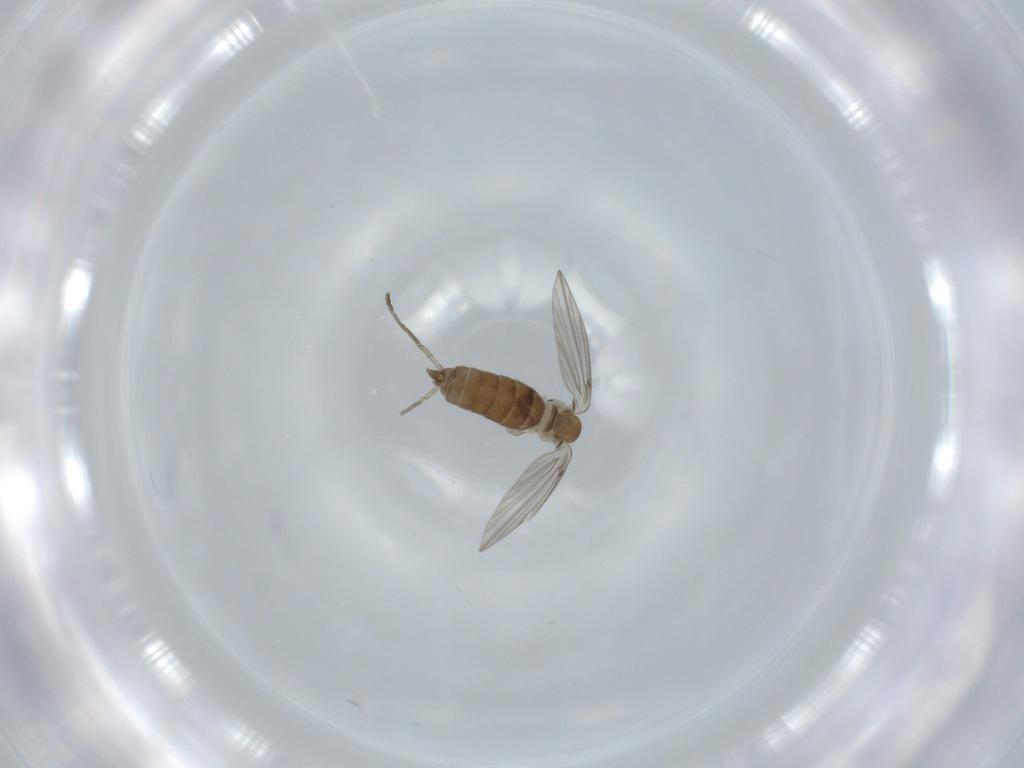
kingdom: Animalia
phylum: Arthropoda
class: Insecta
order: Diptera
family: Psychodidae
